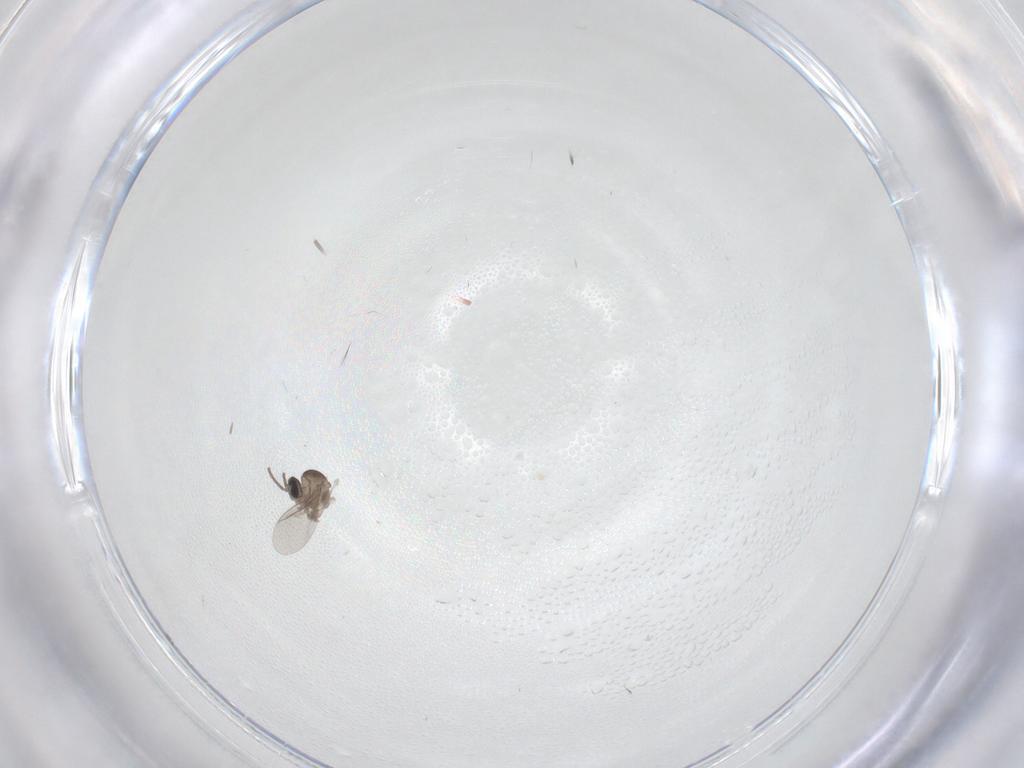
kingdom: Animalia
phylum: Arthropoda
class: Insecta
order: Diptera
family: Cecidomyiidae
